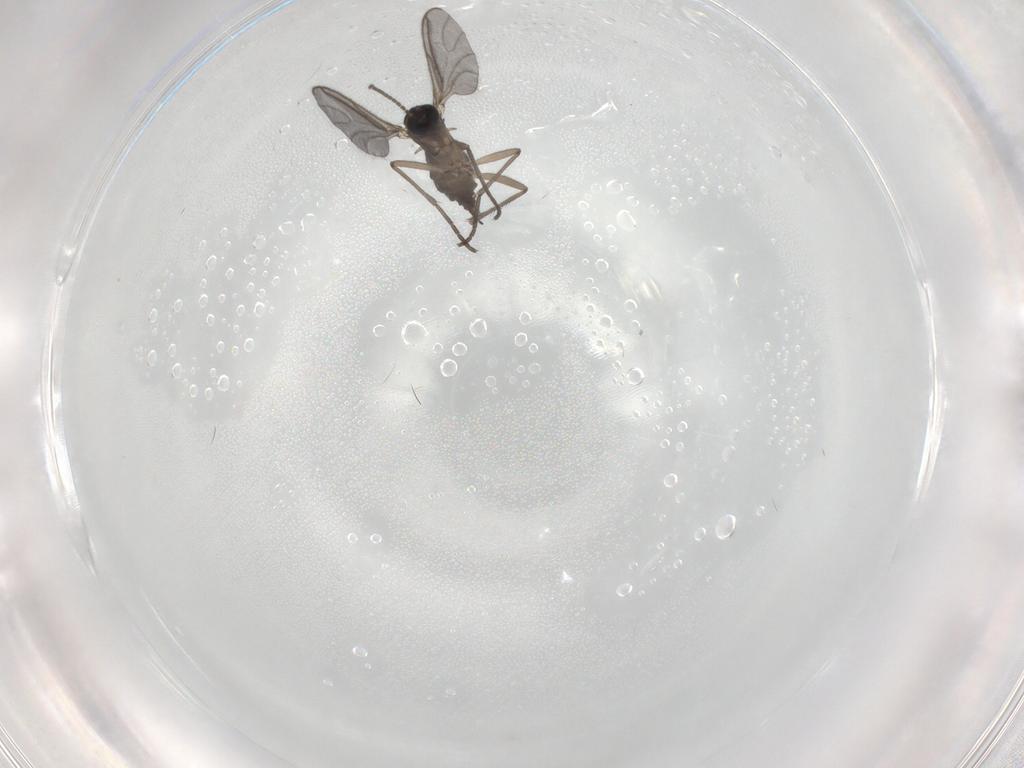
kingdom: Animalia
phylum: Arthropoda
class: Insecta
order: Diptera
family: Sciaridae
